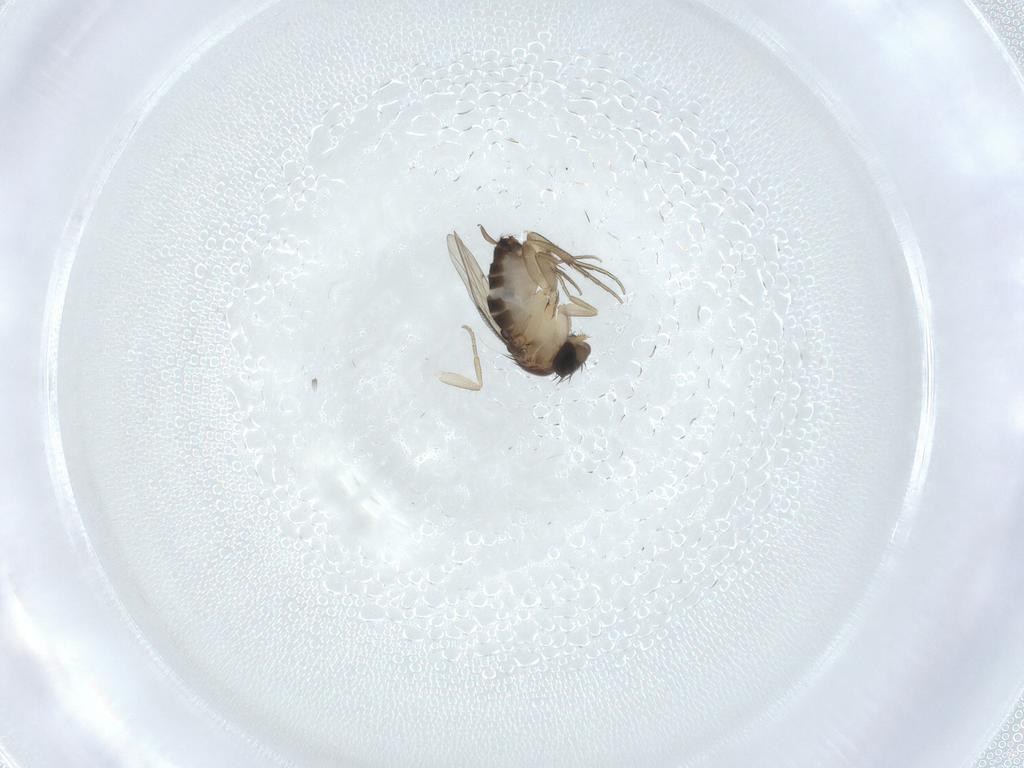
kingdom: Animalia
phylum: Arthropoda
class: Insecta
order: Diptera
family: Phoridae
